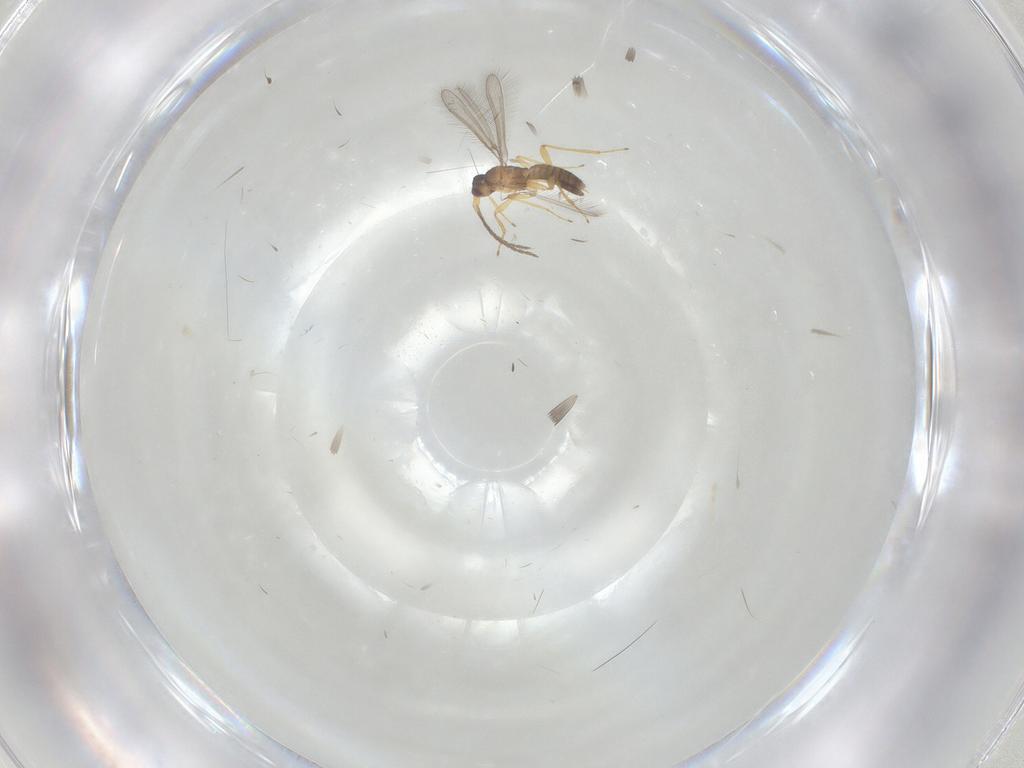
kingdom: Animalia
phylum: Arthropoda
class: Insecta
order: Hymenoptera
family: Mymaridae
